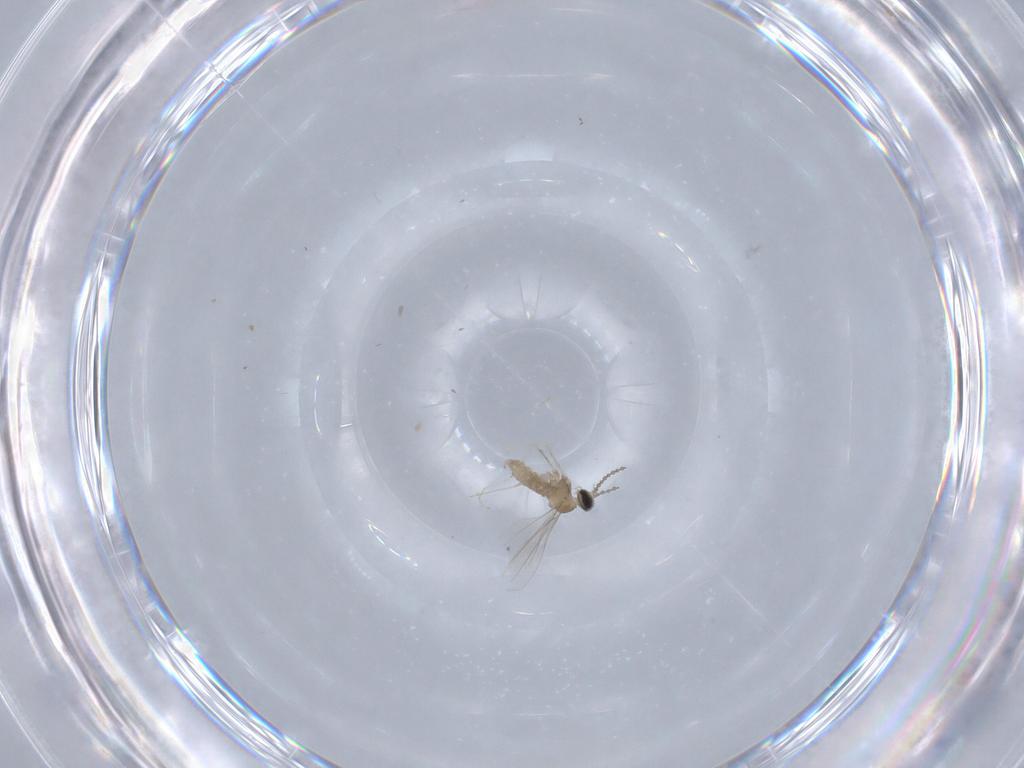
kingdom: Animalia
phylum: Arthropoda
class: Insecta
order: Diptera
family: Cecidomyiidae
